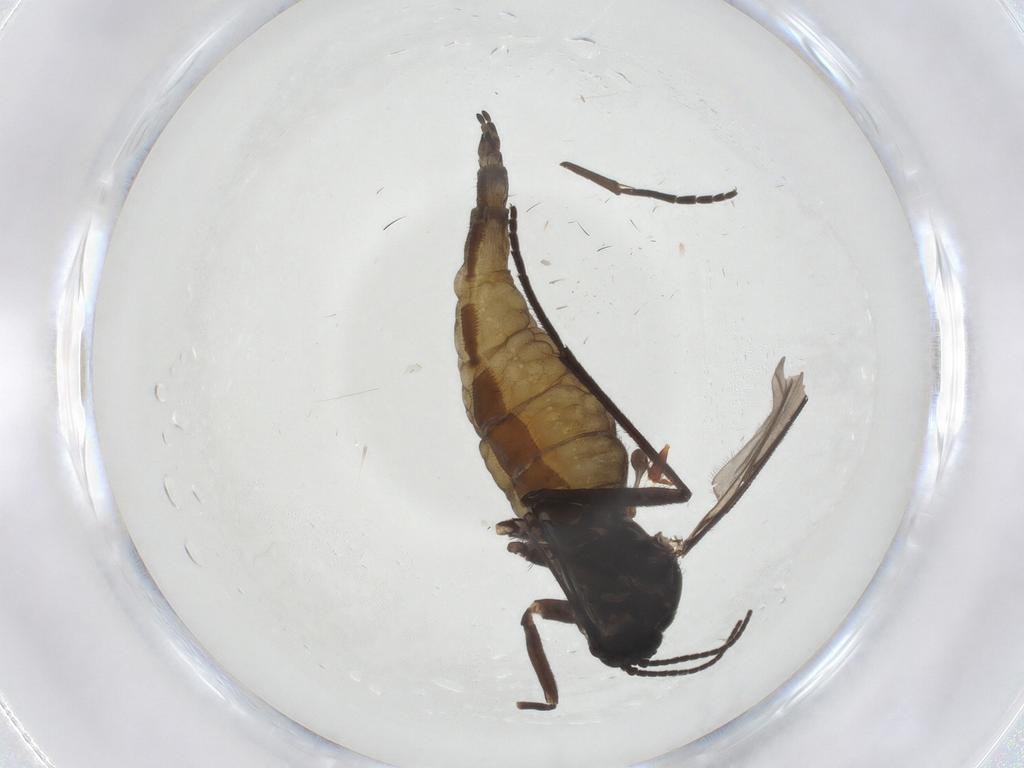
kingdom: Animalia
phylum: Arthropoda
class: Insecta
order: Diptera
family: Sciaridae
